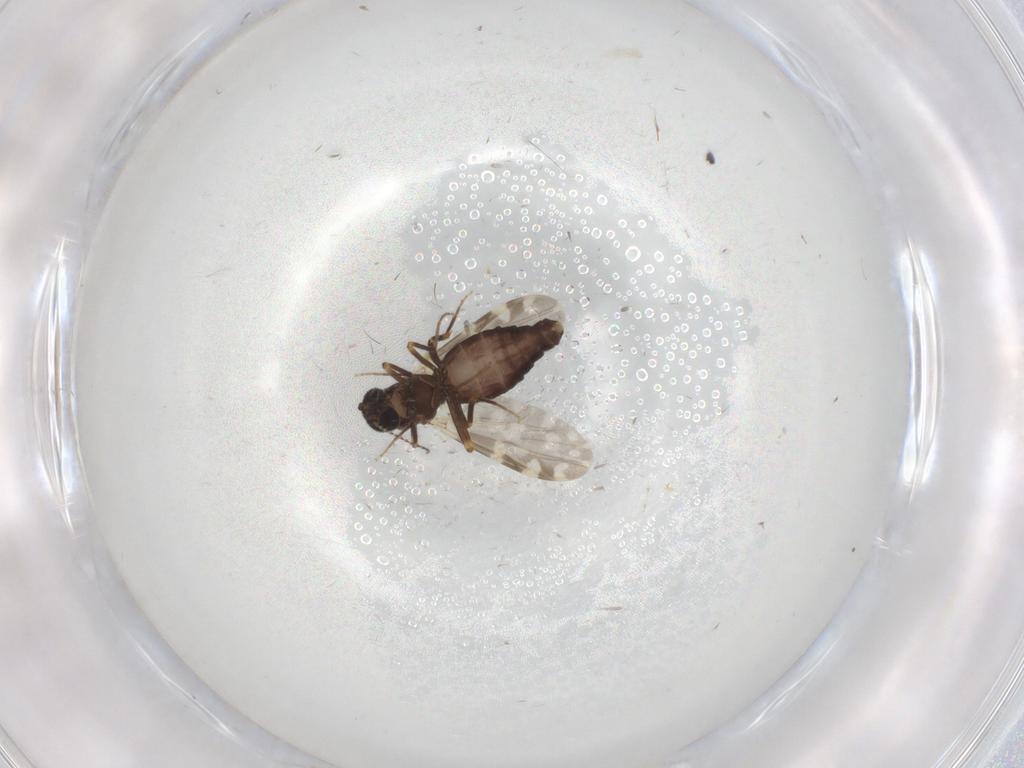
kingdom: Animalia
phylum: Arthropoda
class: Insecta
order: Diptera
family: Ceratopogonidae
